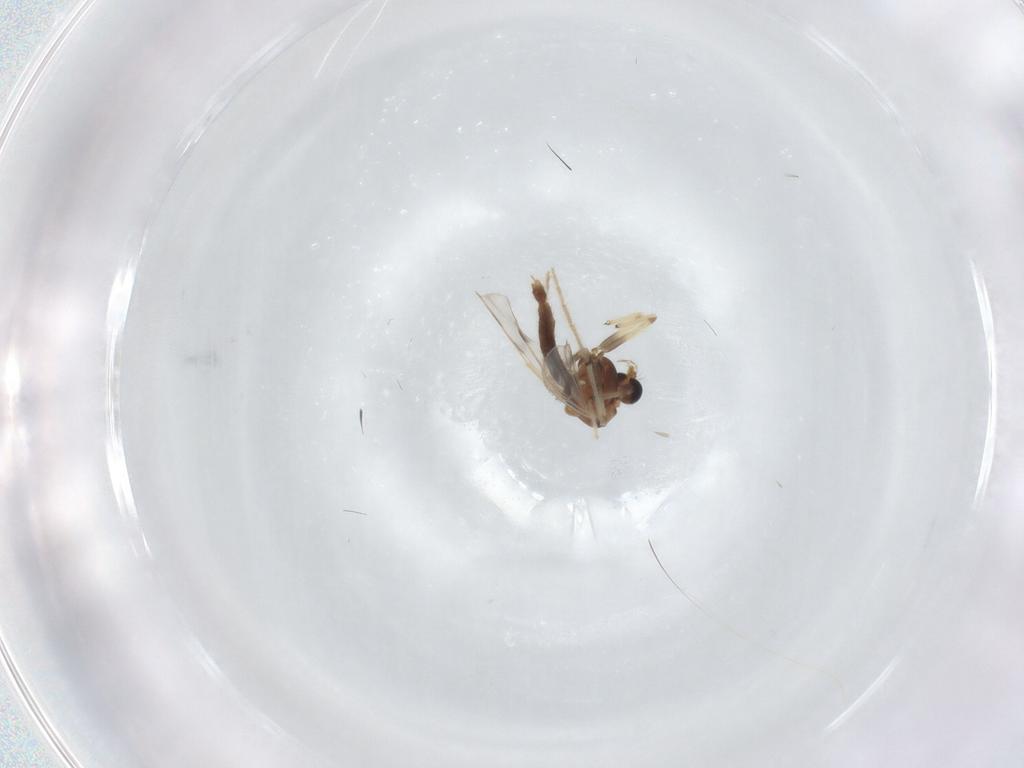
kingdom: Animalia
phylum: Arthropoda
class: Insecta
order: Diptera
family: Chironomidae
